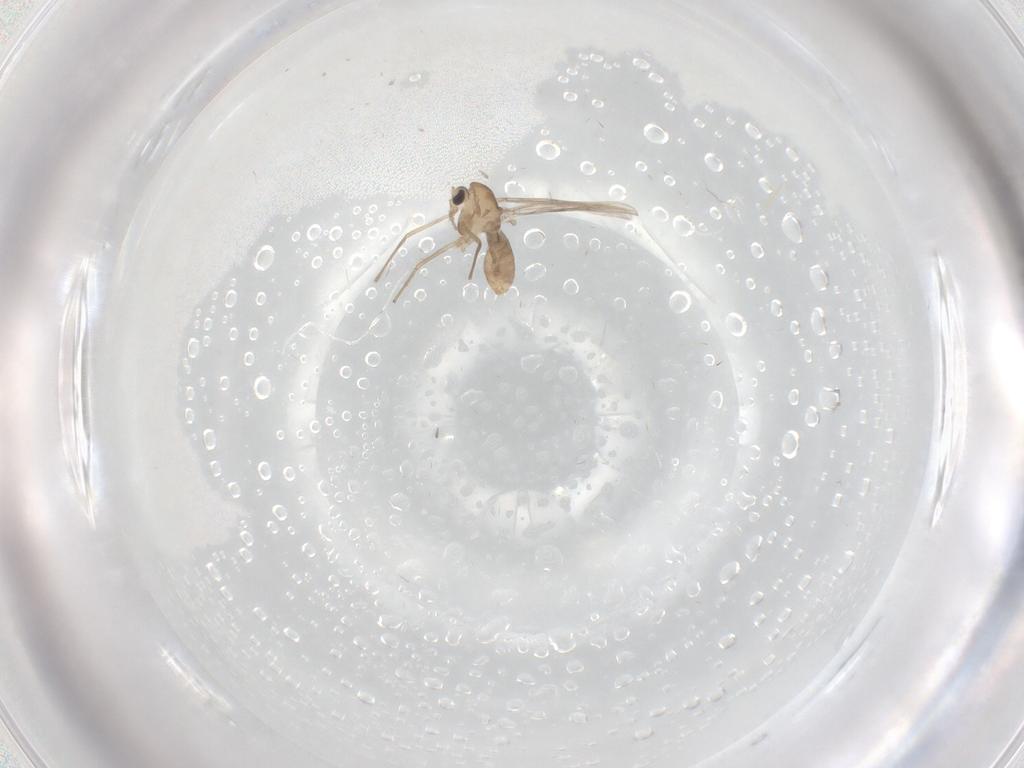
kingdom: Animalia
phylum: Arthropoda
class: Insecta
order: Diptera
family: Chironomidae
